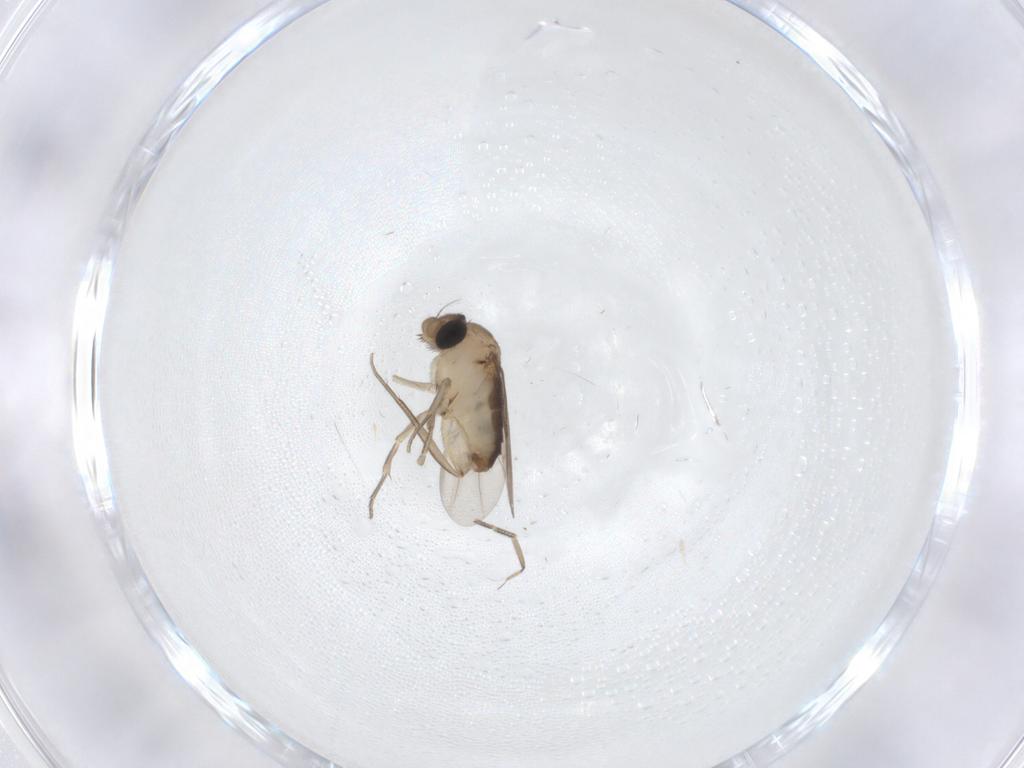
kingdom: Animalia
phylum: Arthropoda
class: Insecta
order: Diptera
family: Phoridae
